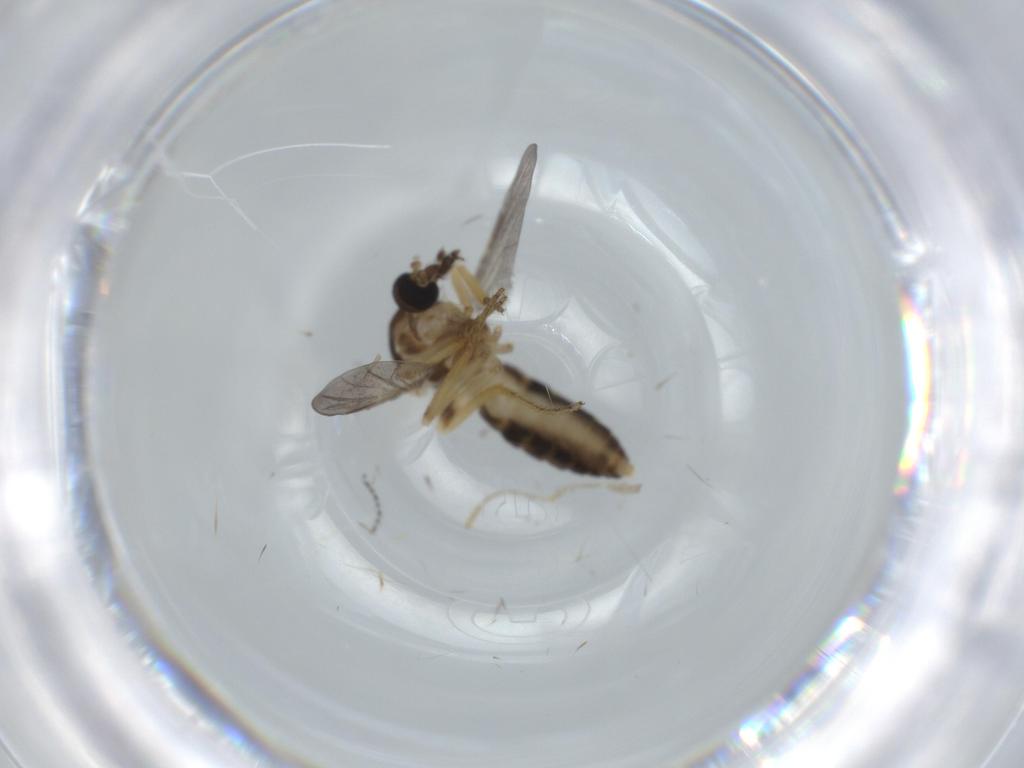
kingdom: Animalia
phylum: Arthropoda
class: Insecta
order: Diptera
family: Ceratopogonidae
